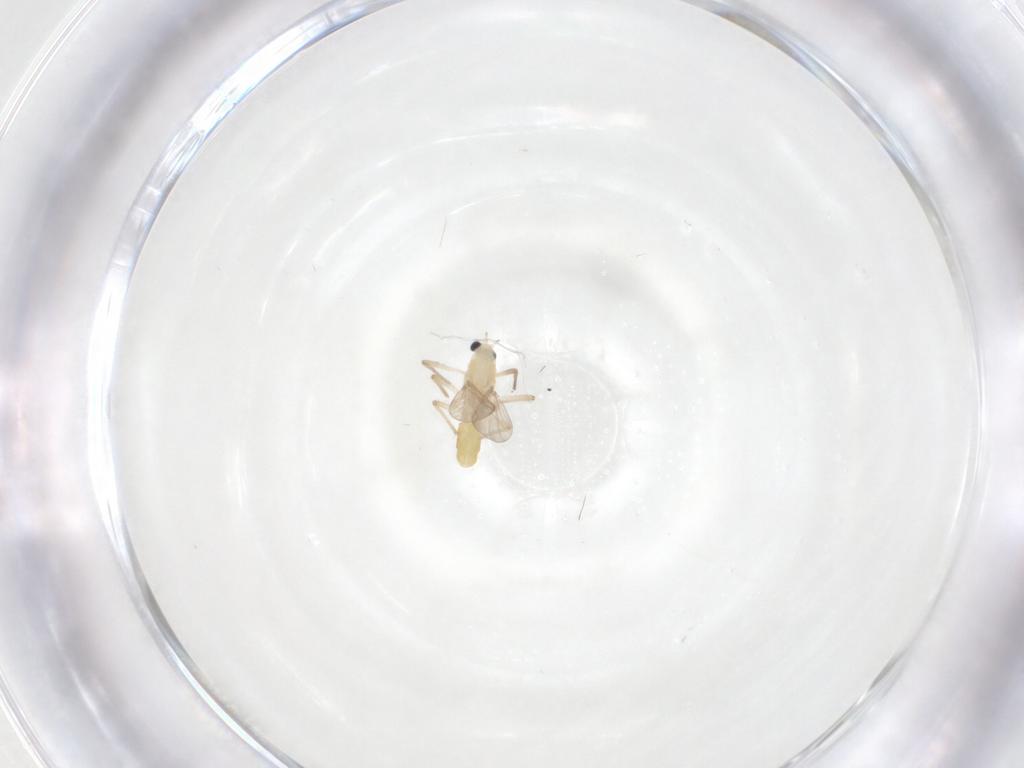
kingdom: Animalia
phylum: Arthropoda
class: Insecta
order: Diptera
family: Chironomidae
